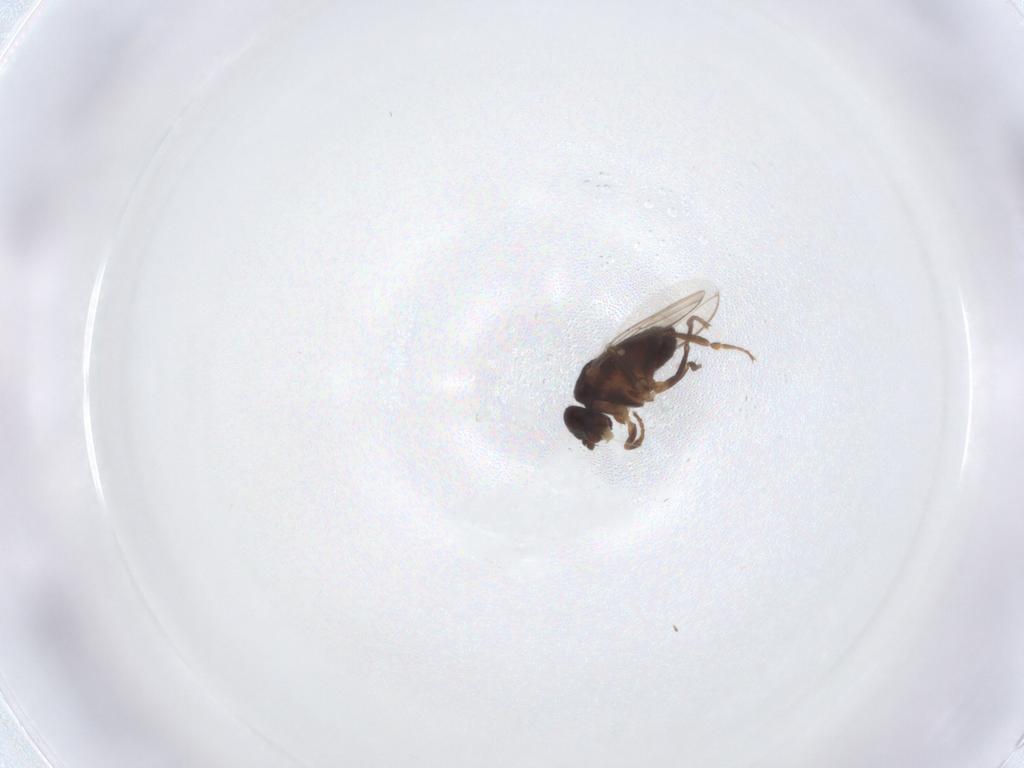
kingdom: Animalia
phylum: Arthropoda
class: Insecta
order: Diptera
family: Sphaeroceridae
